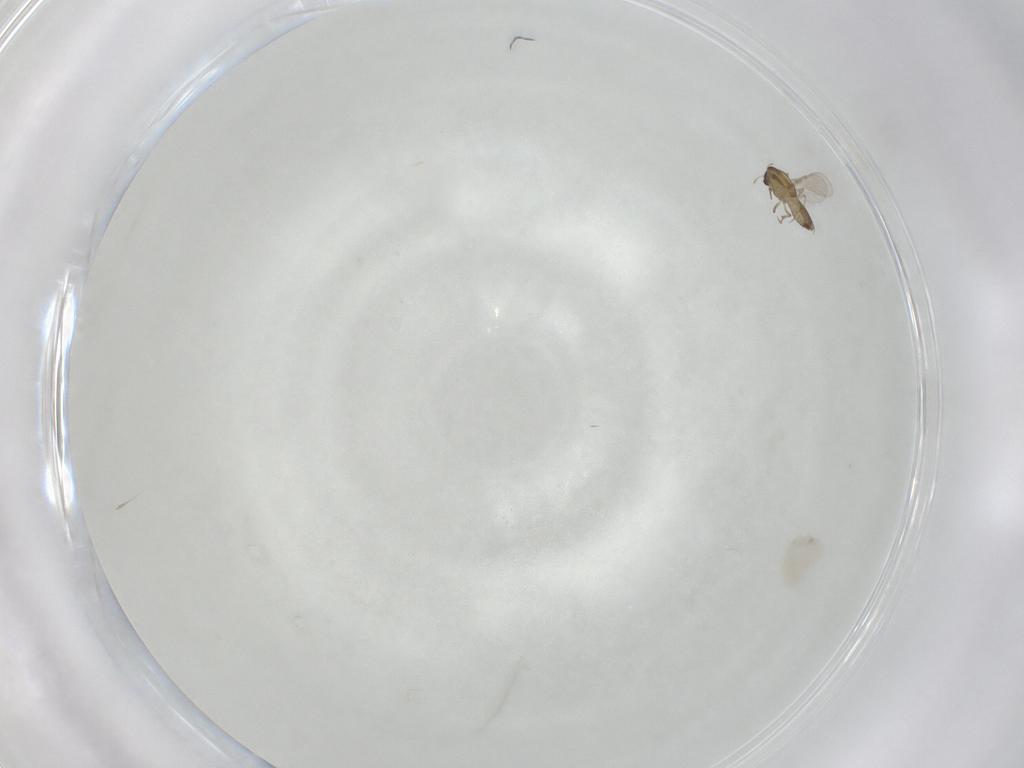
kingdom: Animalia
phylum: Arthropoda
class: Insecta
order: Diptera
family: Chironomidae
